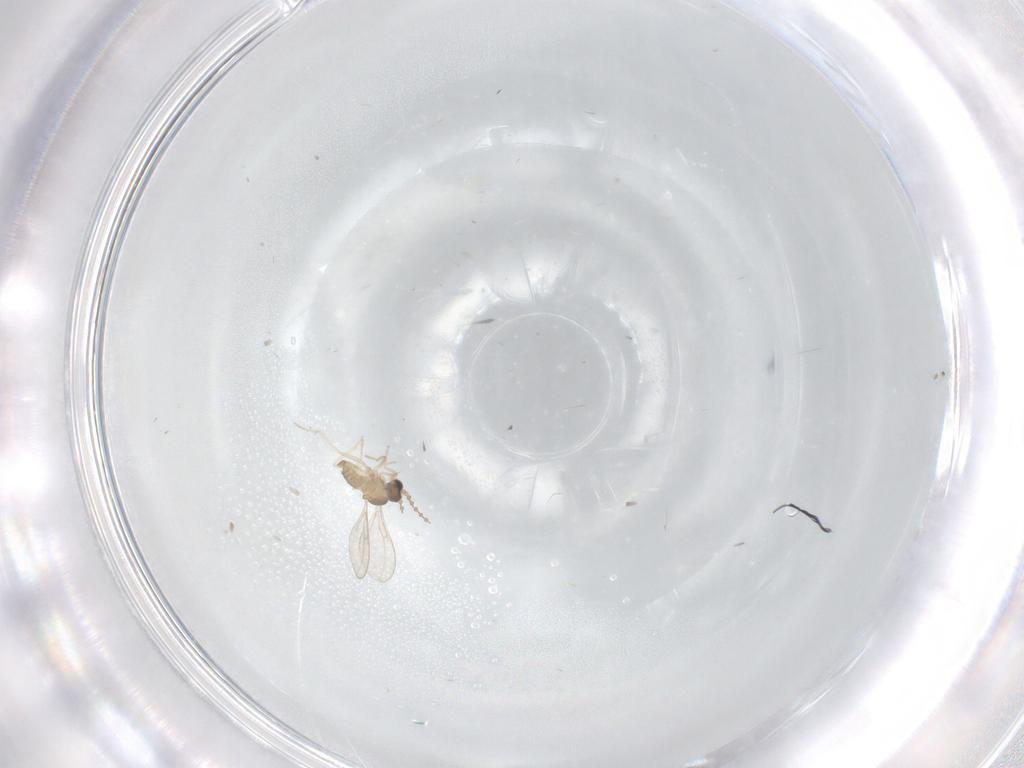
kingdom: Animalia
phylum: Arthropoda
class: Insecta
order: Diptera
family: Cecidomyiidae
